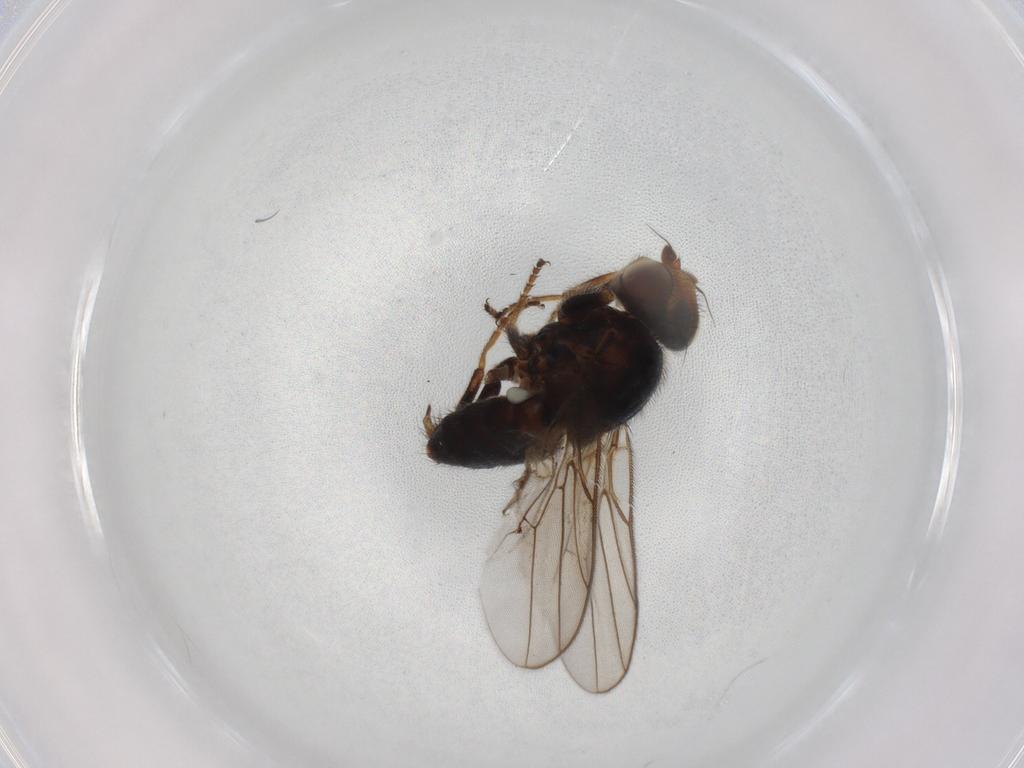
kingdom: Animalia
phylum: Arthropoda
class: Insecta
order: Diptera
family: Chloropidae
